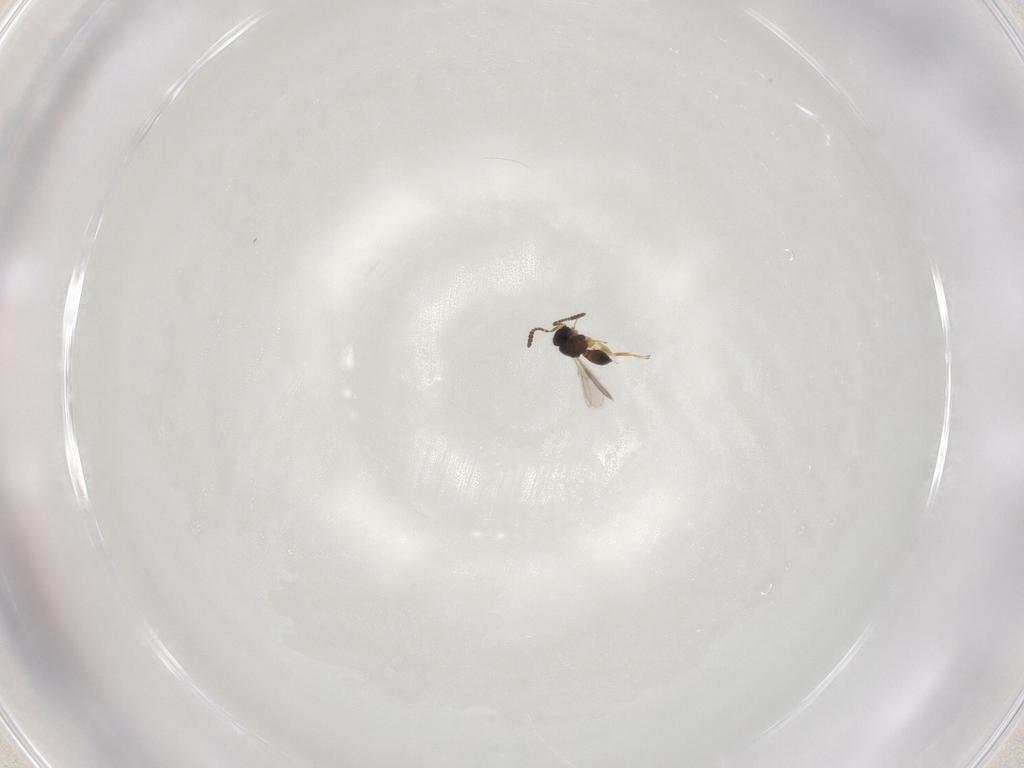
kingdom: Animalia
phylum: Arthropoda
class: Insecta
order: Hymenoptera
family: Scelionidae
